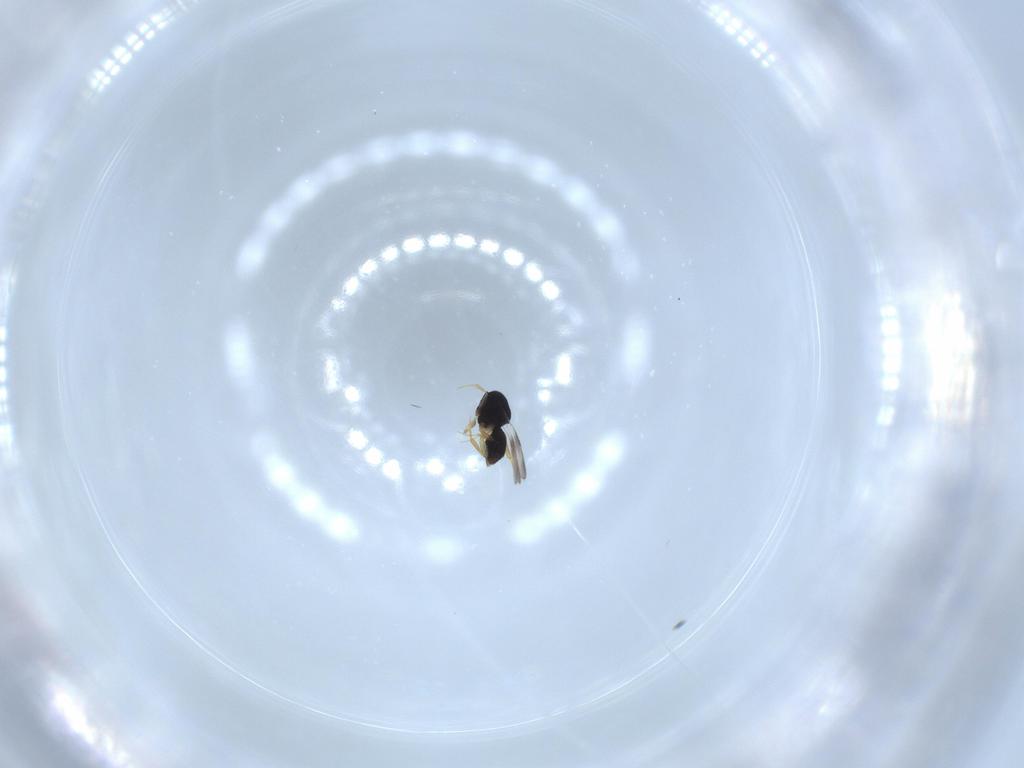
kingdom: Animalia
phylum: Arthropoda
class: Insecta
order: Hymenoptera
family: Ceraphronidae
